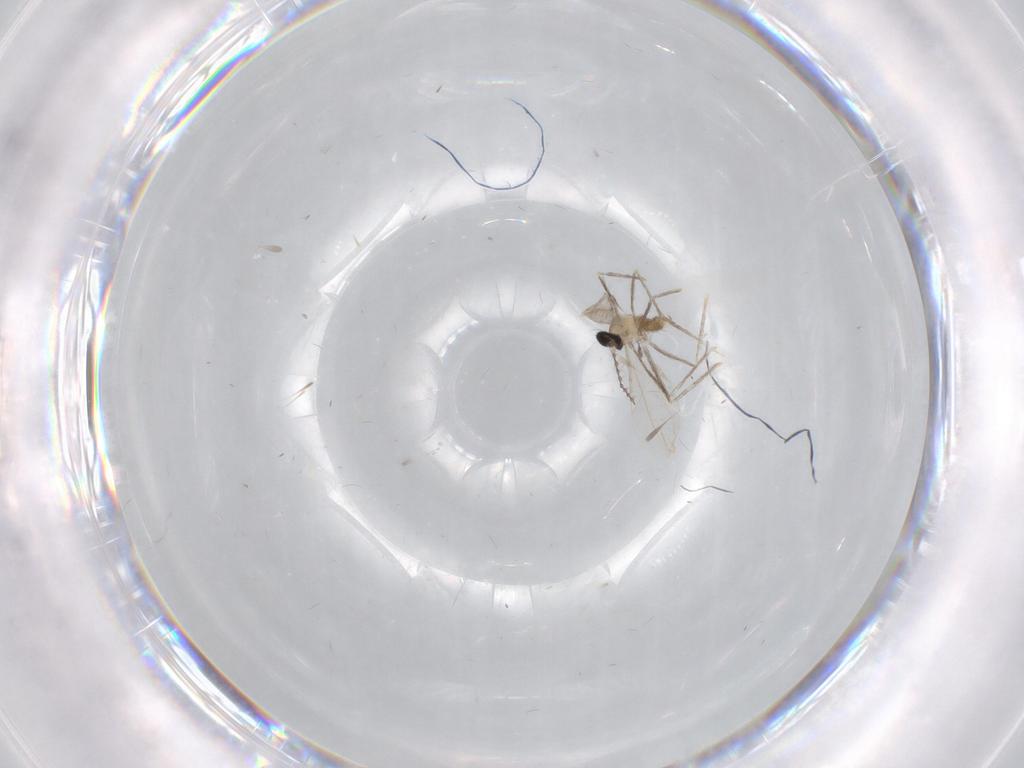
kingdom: Animalia
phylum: Arthropoda
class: Insecta
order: Diptera
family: Cecidomyiidae
